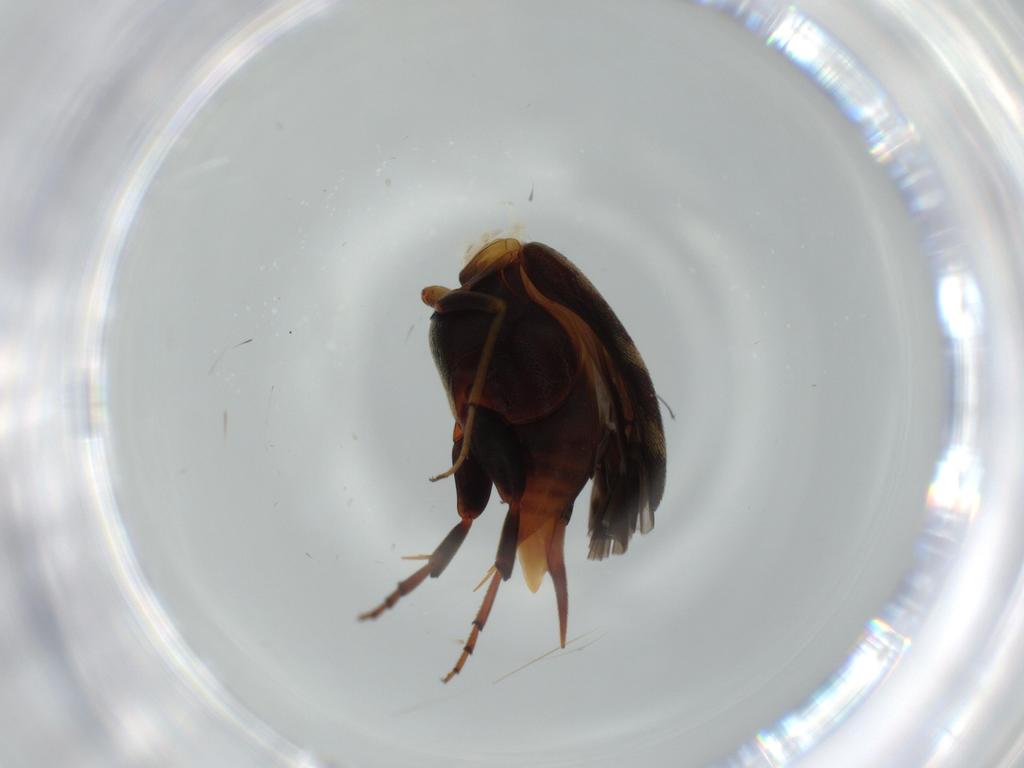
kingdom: Animalia
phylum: Arthropoda
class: Insecta
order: Coleoptera
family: Mordellidae
